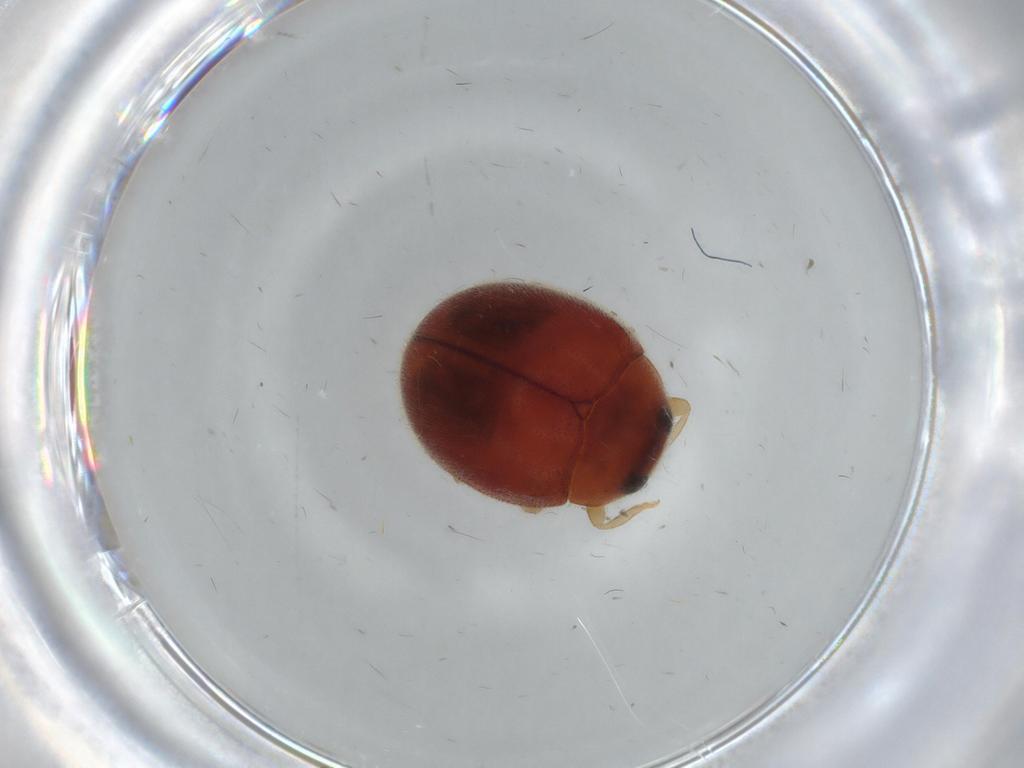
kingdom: Animalia
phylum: Arthropoda
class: Insecta
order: Coleoptera
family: Coccinellidae
